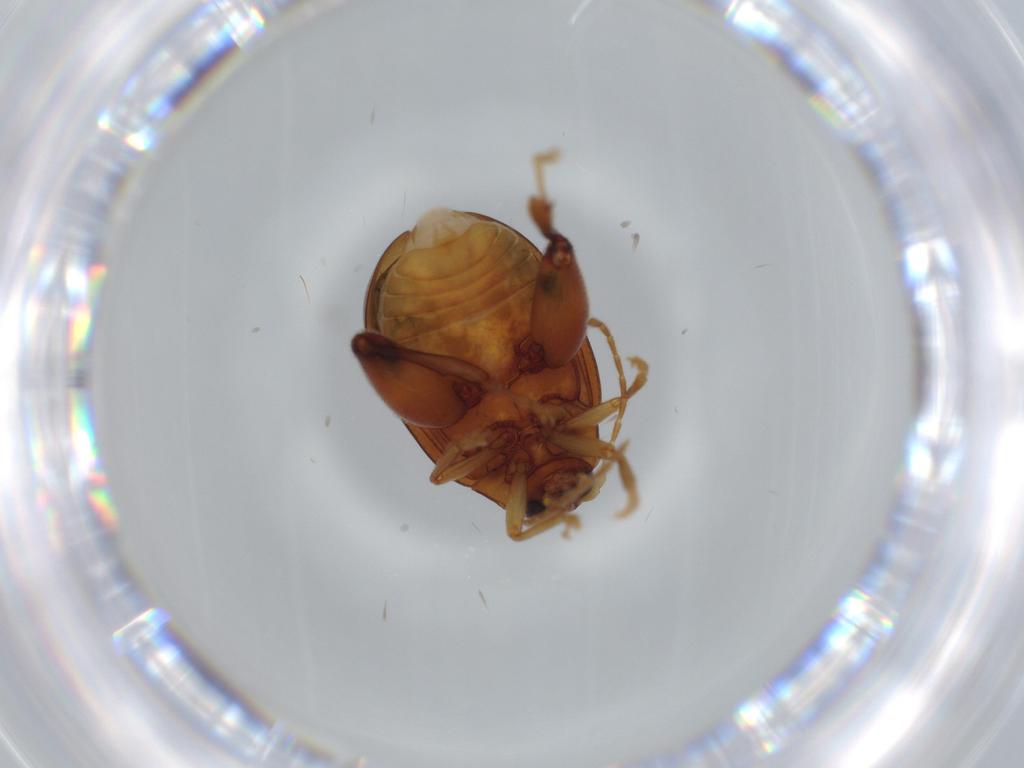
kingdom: Animalia
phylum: Arthropoda
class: Insecta
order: Coleoptera
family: Chrysomelidae
